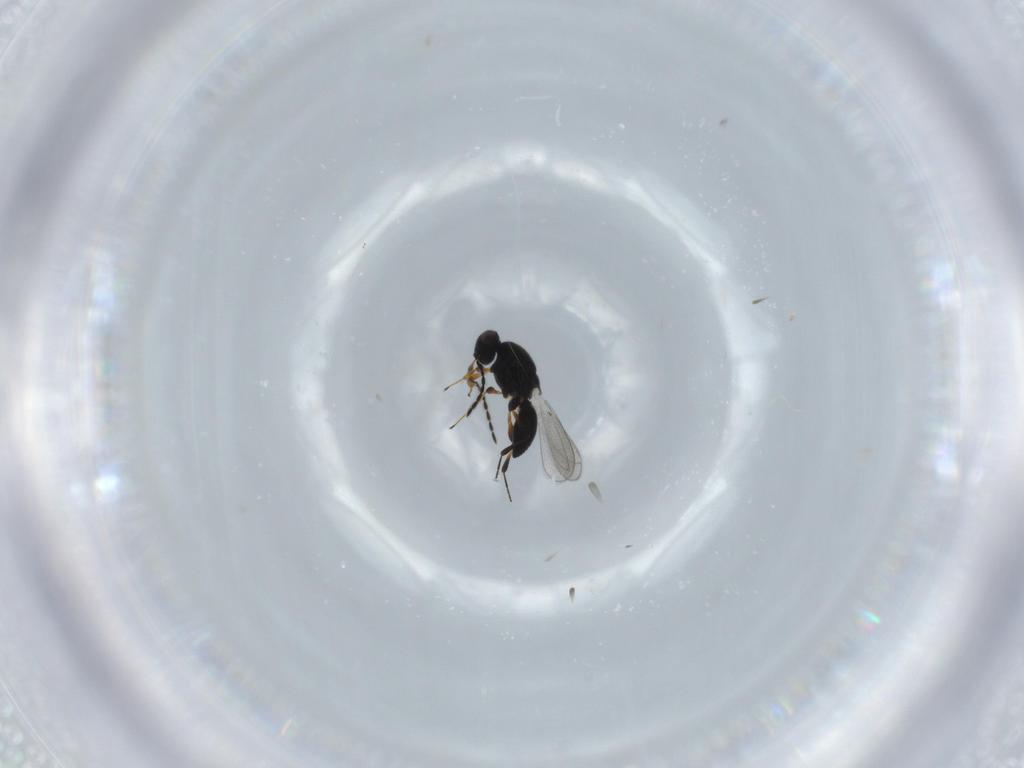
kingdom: Animalia
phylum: Arthropoda
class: Insecta
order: Hymenoptera
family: Platygastridae
